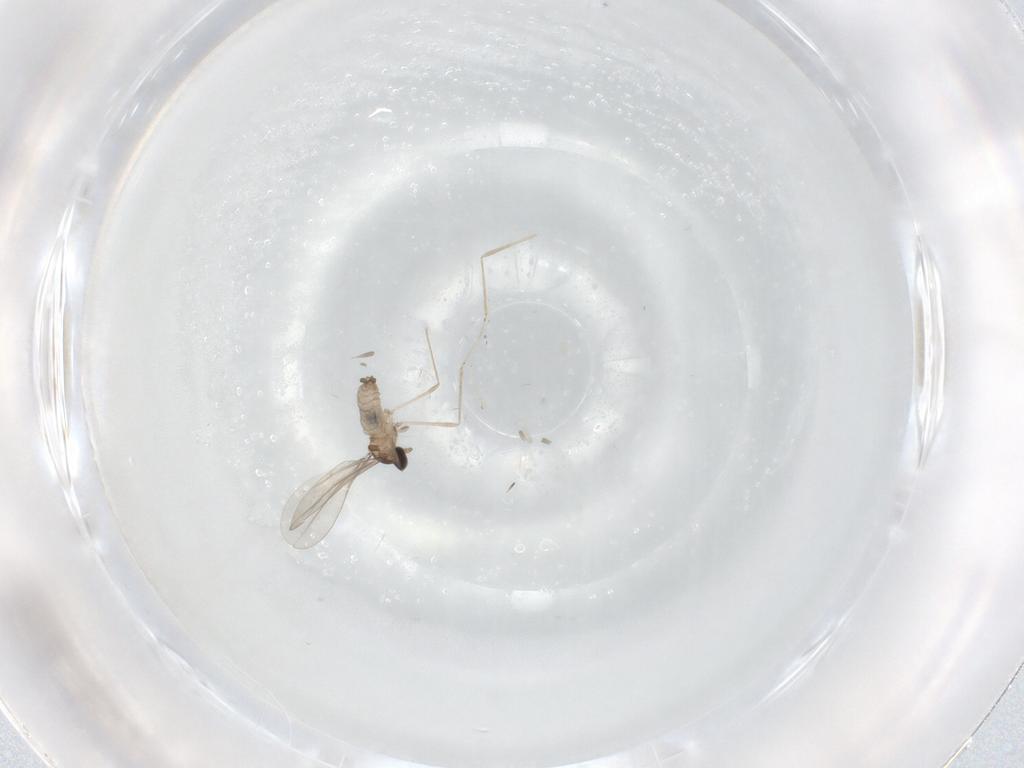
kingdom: Animalia
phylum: Arthropoda
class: Insecta
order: Diptera
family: Cecidomyiidae
